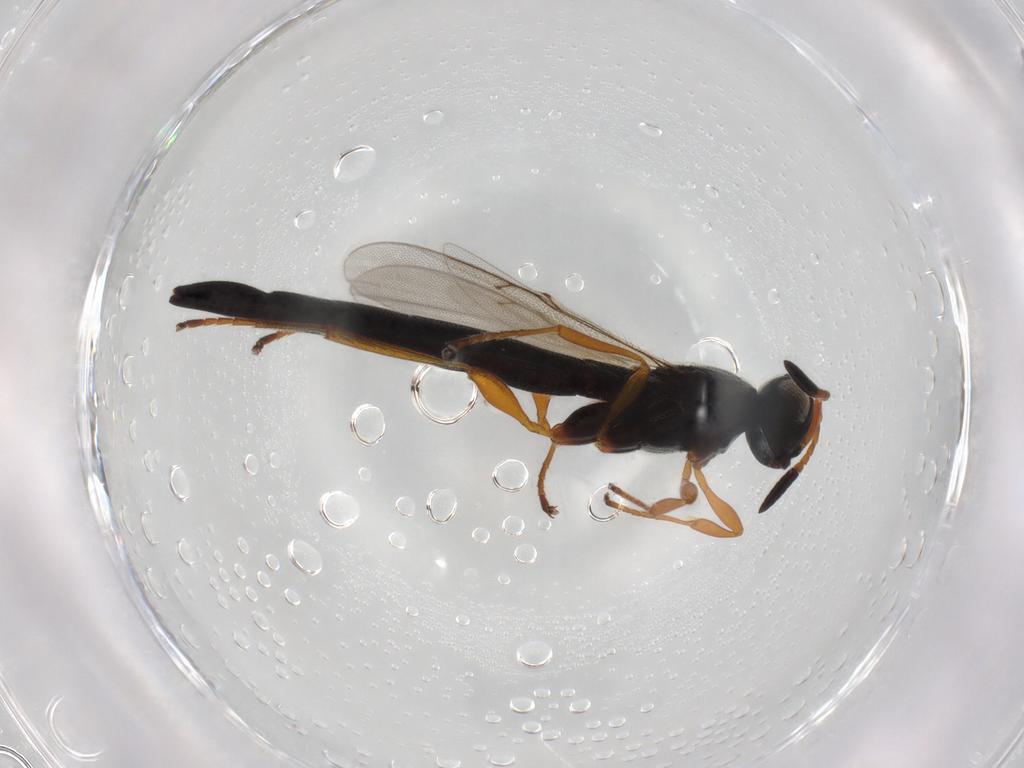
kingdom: Animalia
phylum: Arthropoda
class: Insecta
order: Hymenoptera
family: Scelionidae
